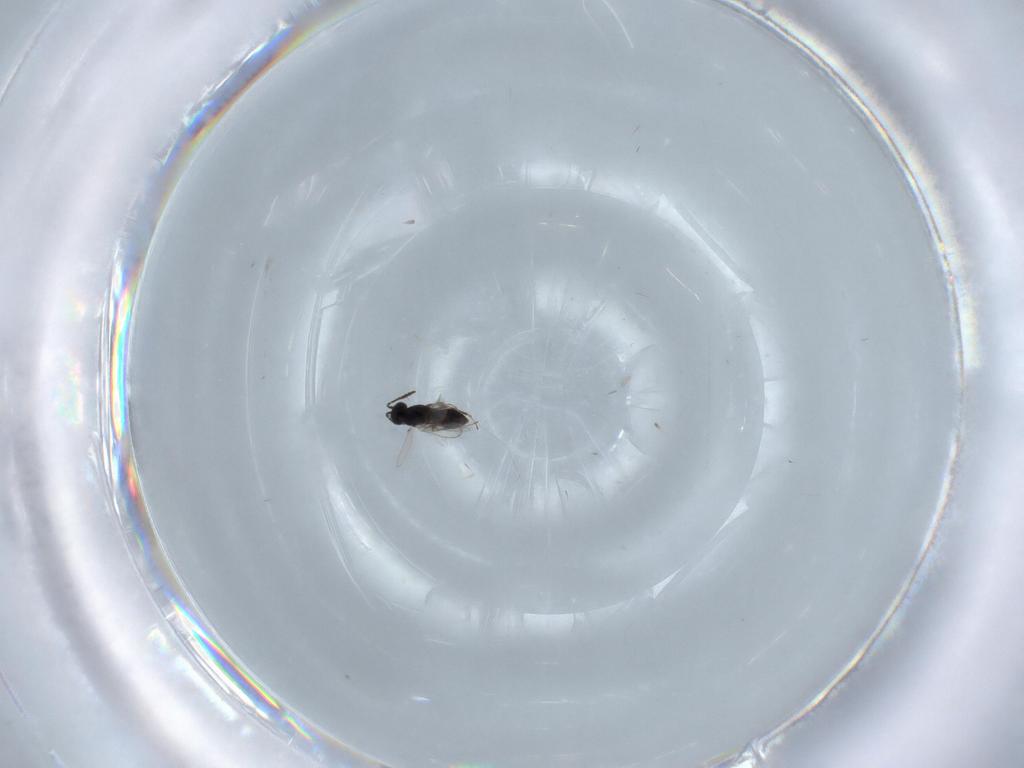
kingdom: Animalia
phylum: Arthropoda
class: Insecta
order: Hymenoptera
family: Scelionidae
